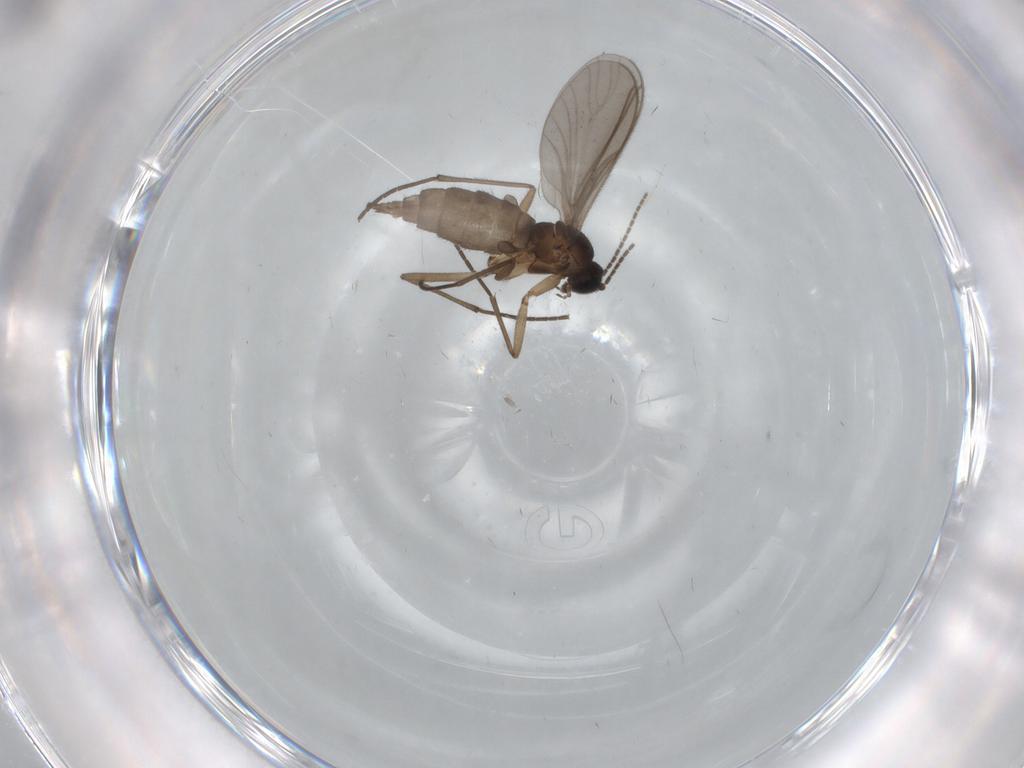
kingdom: Animalia
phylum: Arthropoda
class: Insecta
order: Diptera
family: Cecidomyiidae
